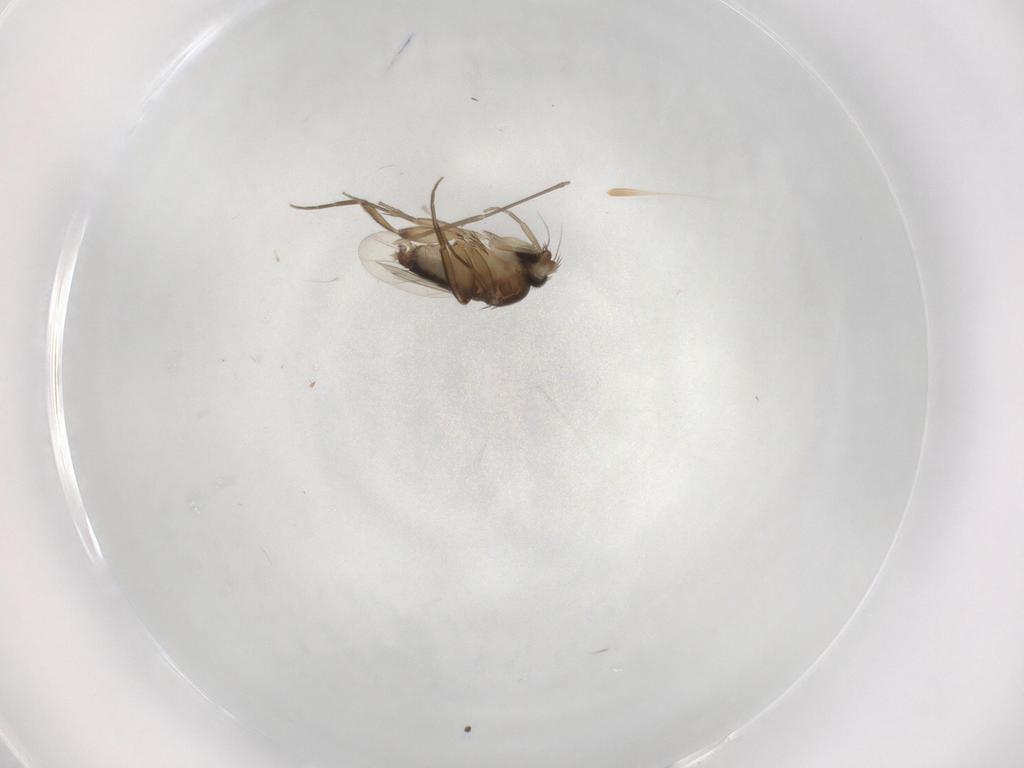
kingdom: Animalia
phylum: Arthropoda
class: Insecta
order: Diptera
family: Phoridae
